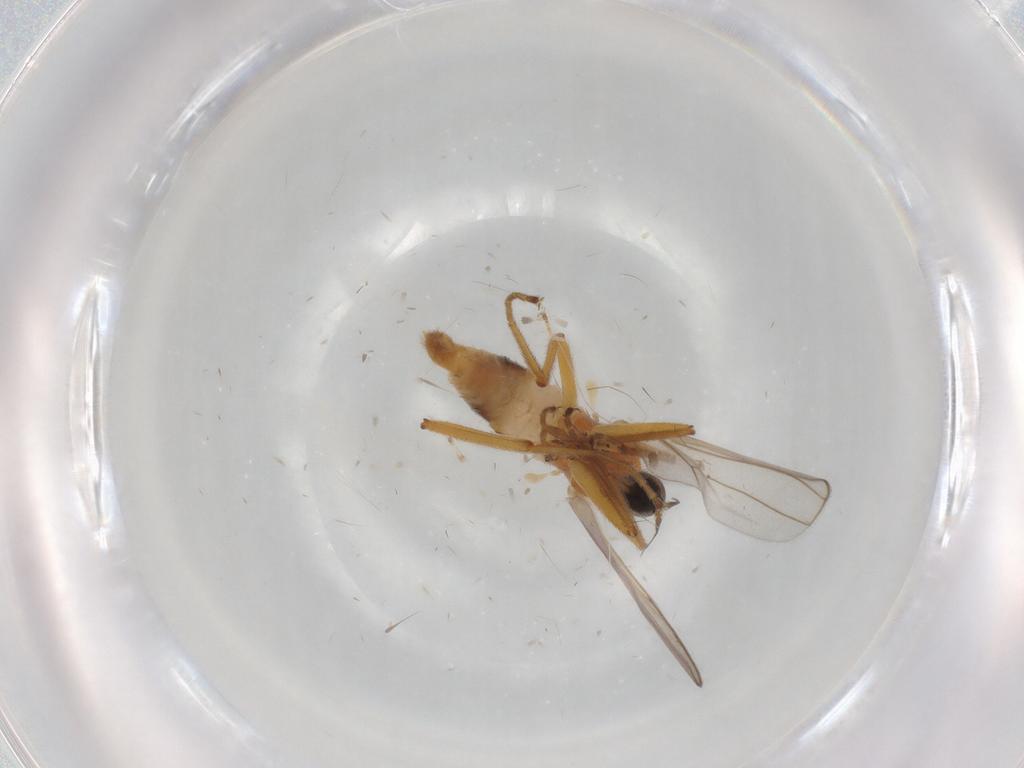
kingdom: Animalia
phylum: Arthropoda
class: Insecta
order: Diptera
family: Hybotidae
